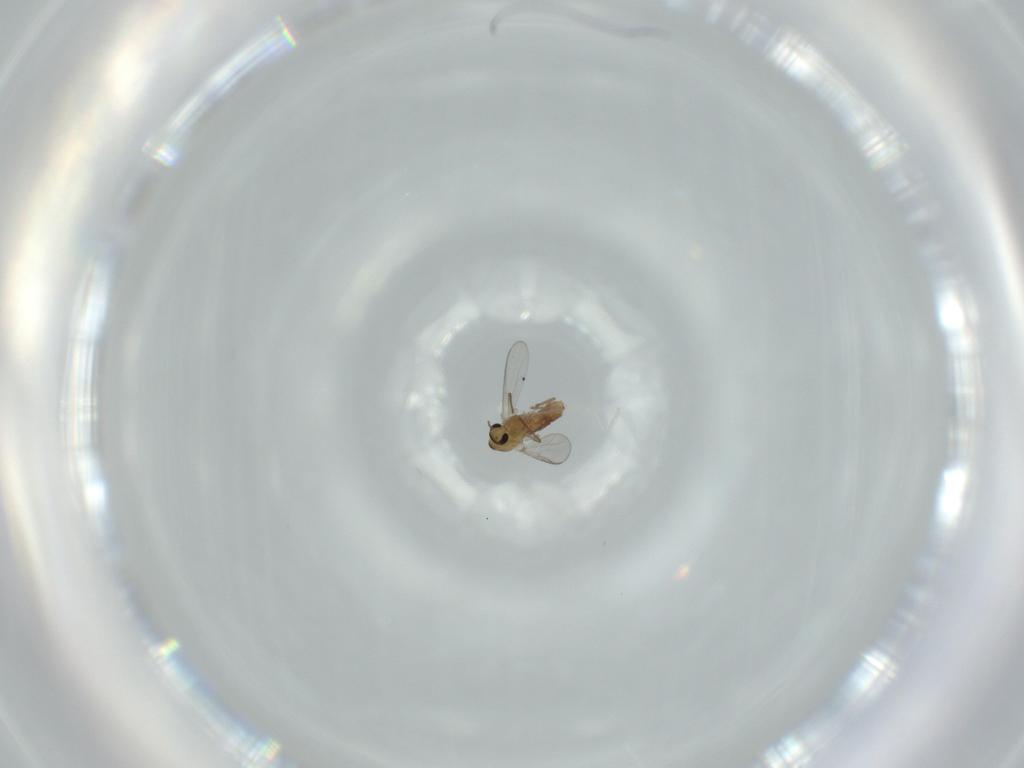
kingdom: Animalia
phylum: Arthropoda
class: Insecta
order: Diptera
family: Chironomidae
